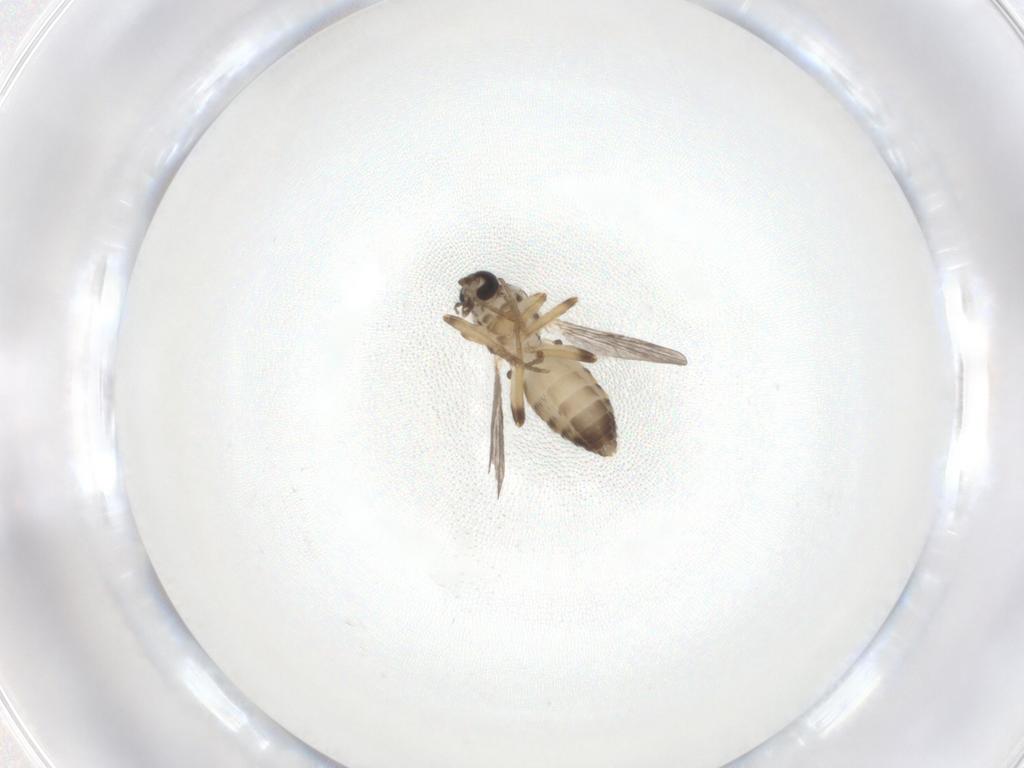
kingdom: Animalia
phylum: Arthropoda
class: Insecta
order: Diptera
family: Ceratopogonidae
